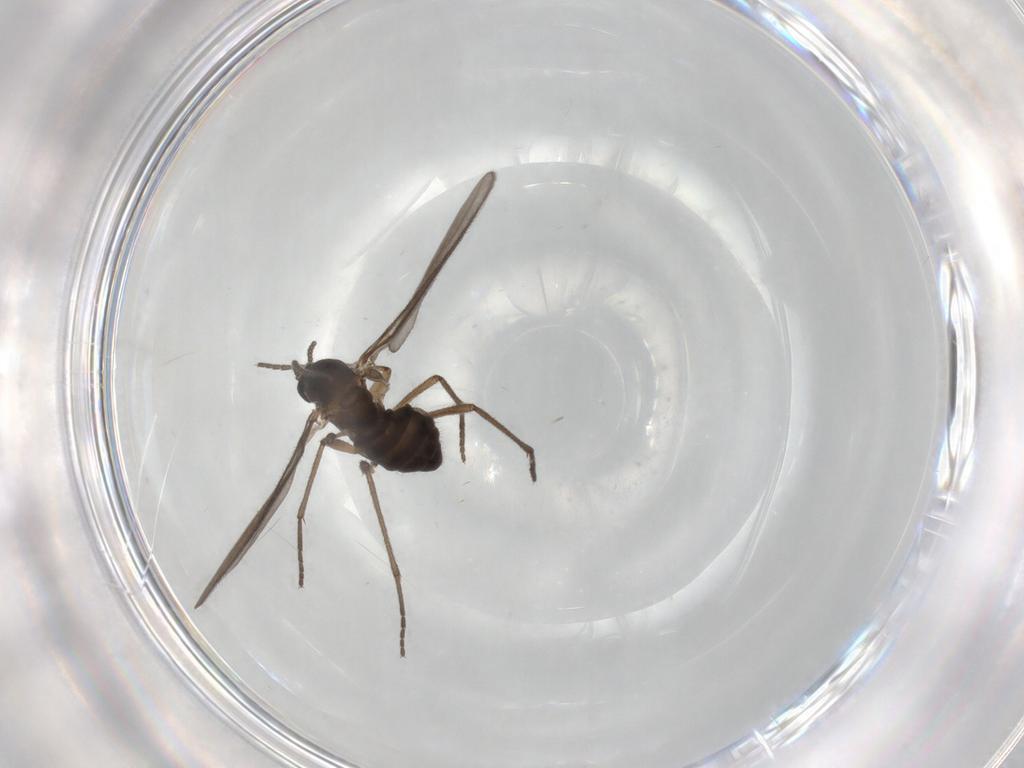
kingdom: Animalia
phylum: Arthropoda
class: Insecta
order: Diptera
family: Sciaridae
